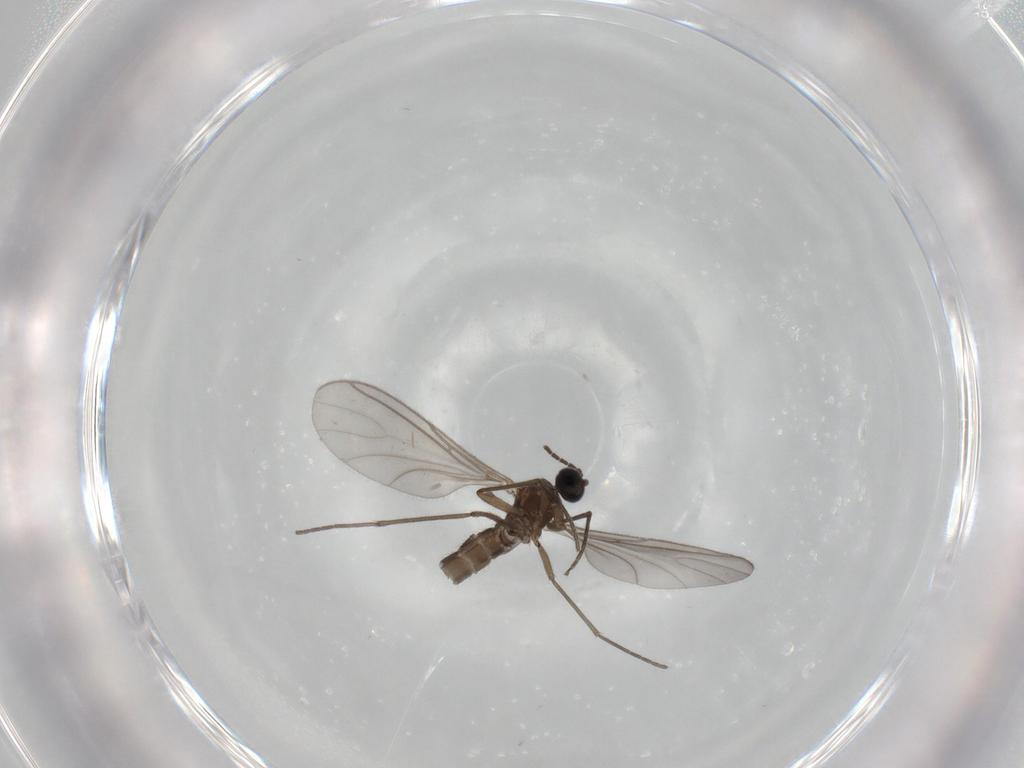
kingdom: Animalia
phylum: Arthropoda
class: Insecta
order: Diptera
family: Sciaridae
